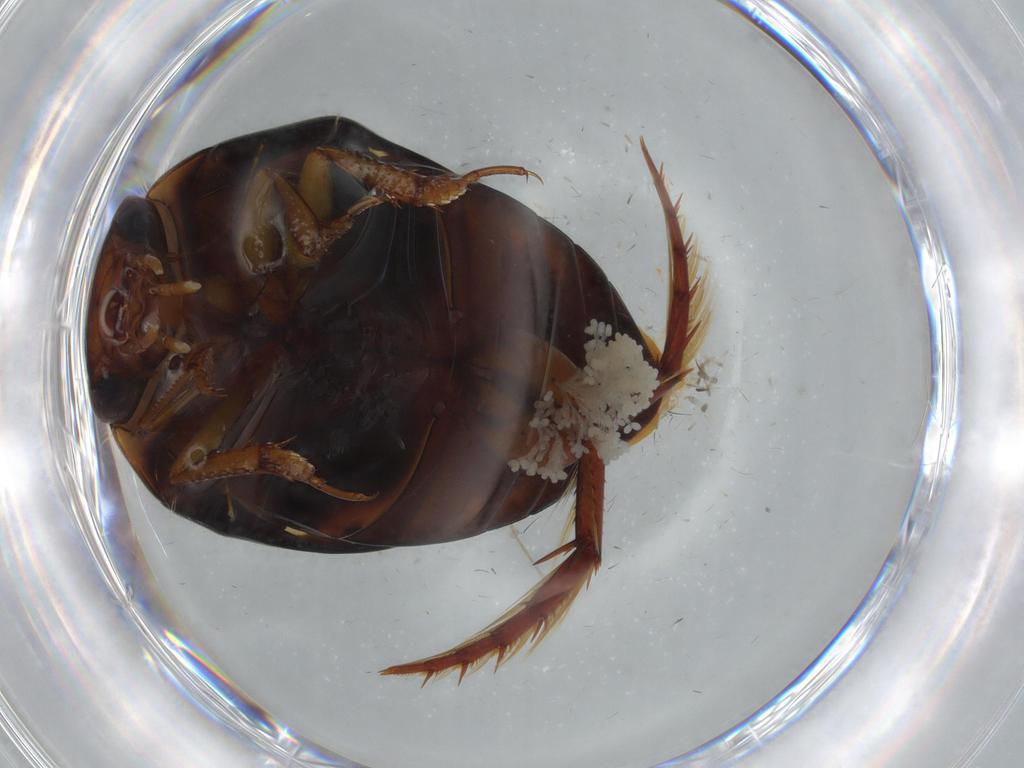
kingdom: Animalia
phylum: Arthropoda
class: Insecta
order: Coleoptera
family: Dytiscidae
